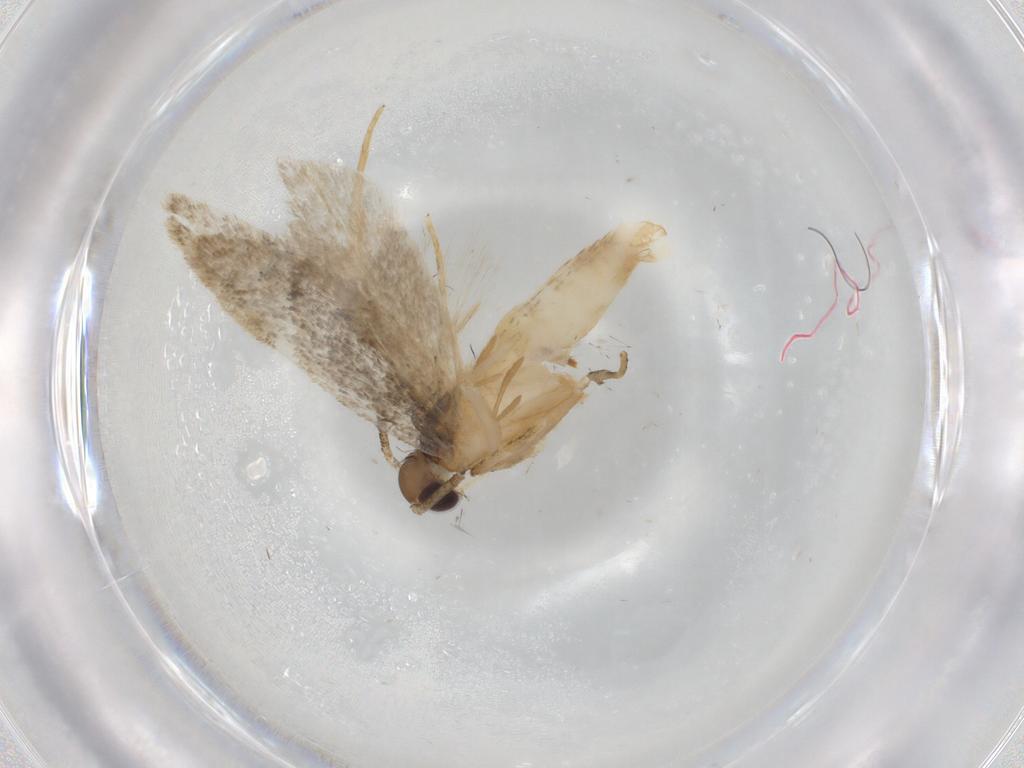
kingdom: Animalia
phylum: Arthropoda
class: Insecta
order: Lepidoptera
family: Autostichidae
